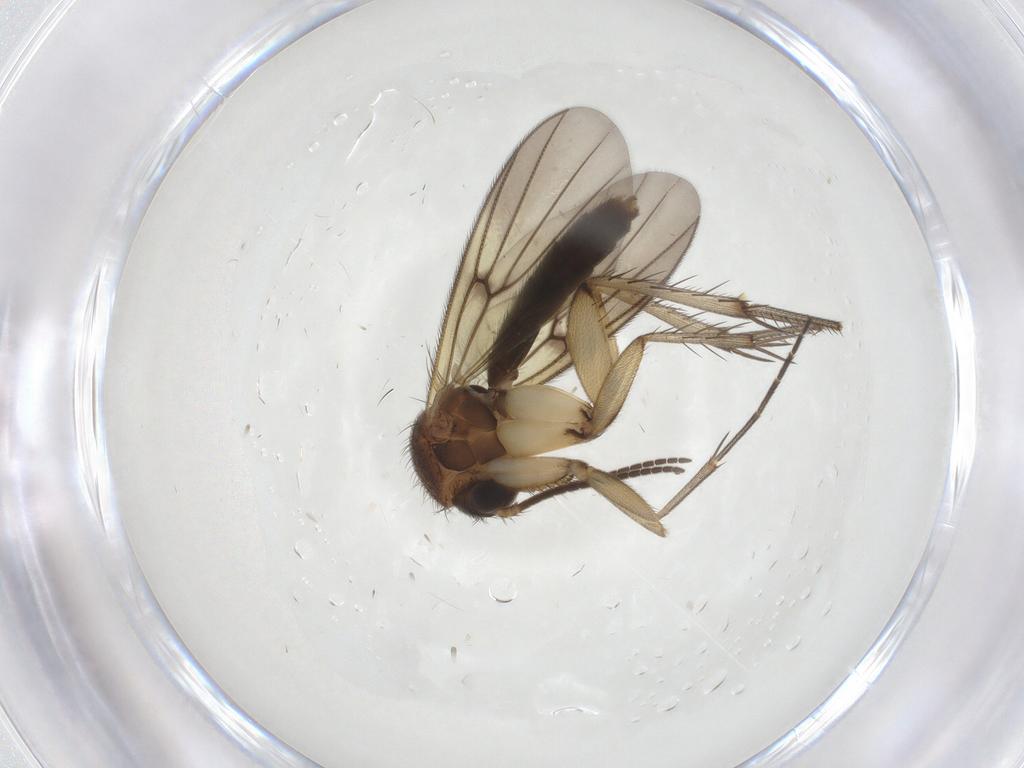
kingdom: Animalia
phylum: Arthropoda
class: Insecta
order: Diptera
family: Mycetophilidae
